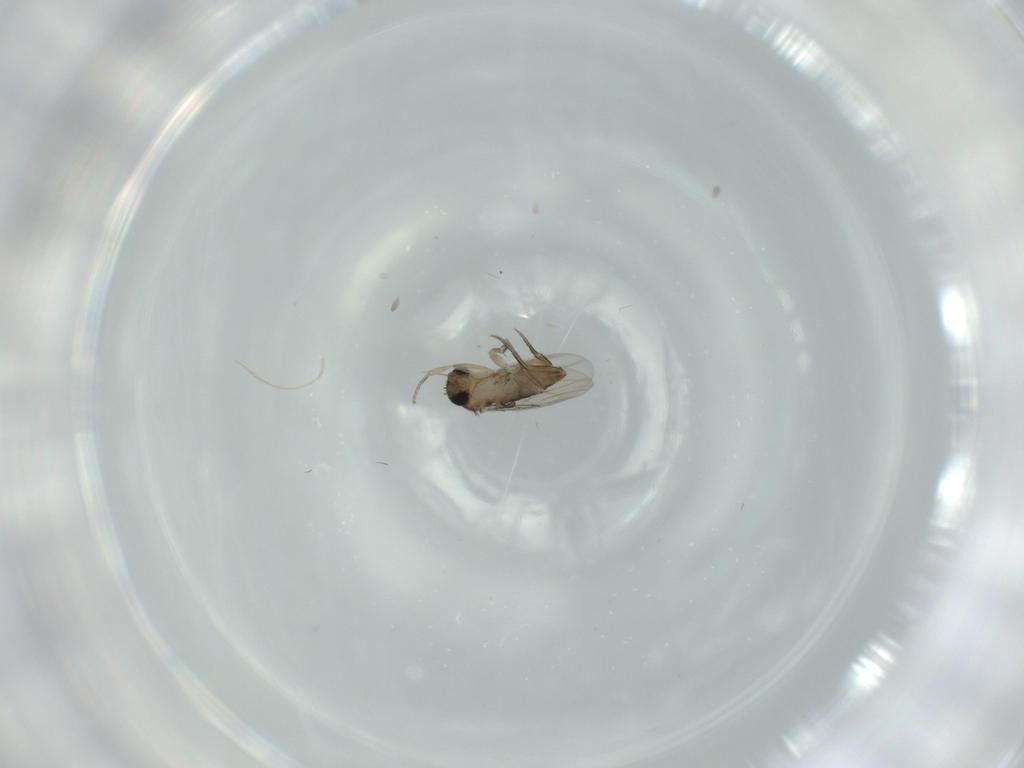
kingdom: Animalia
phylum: Arthropoda
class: Insecta
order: Diptera
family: Phoridae
